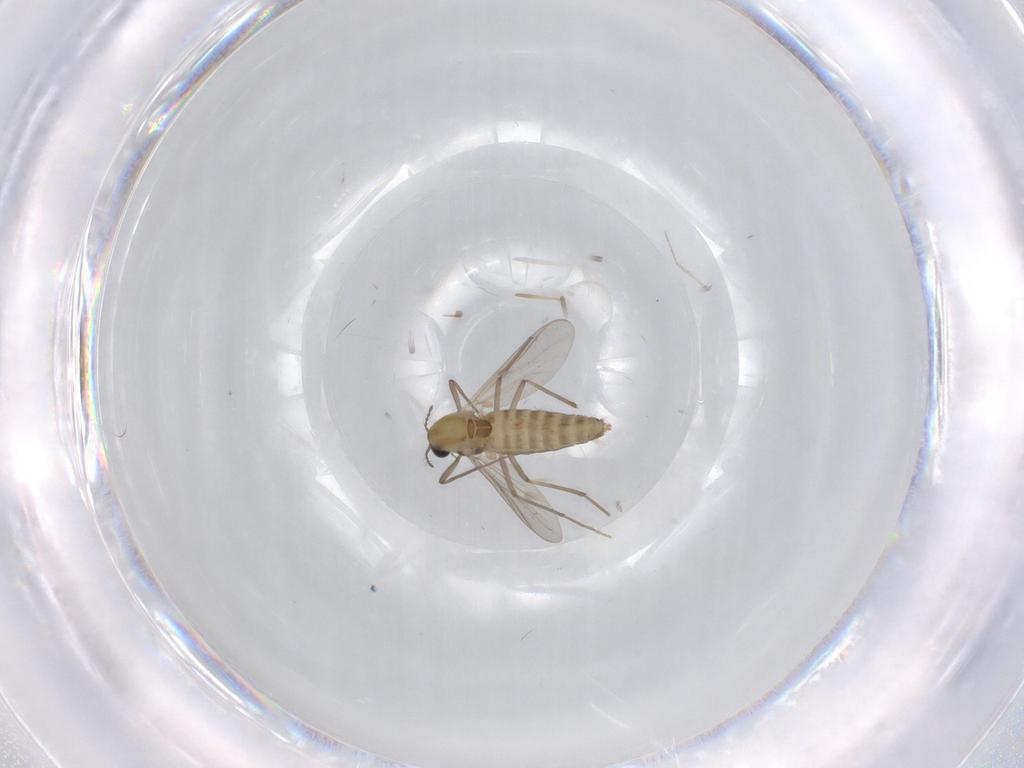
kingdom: Animalia
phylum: Arthropoda
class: Insecta
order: Diptera
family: Chironomidae
